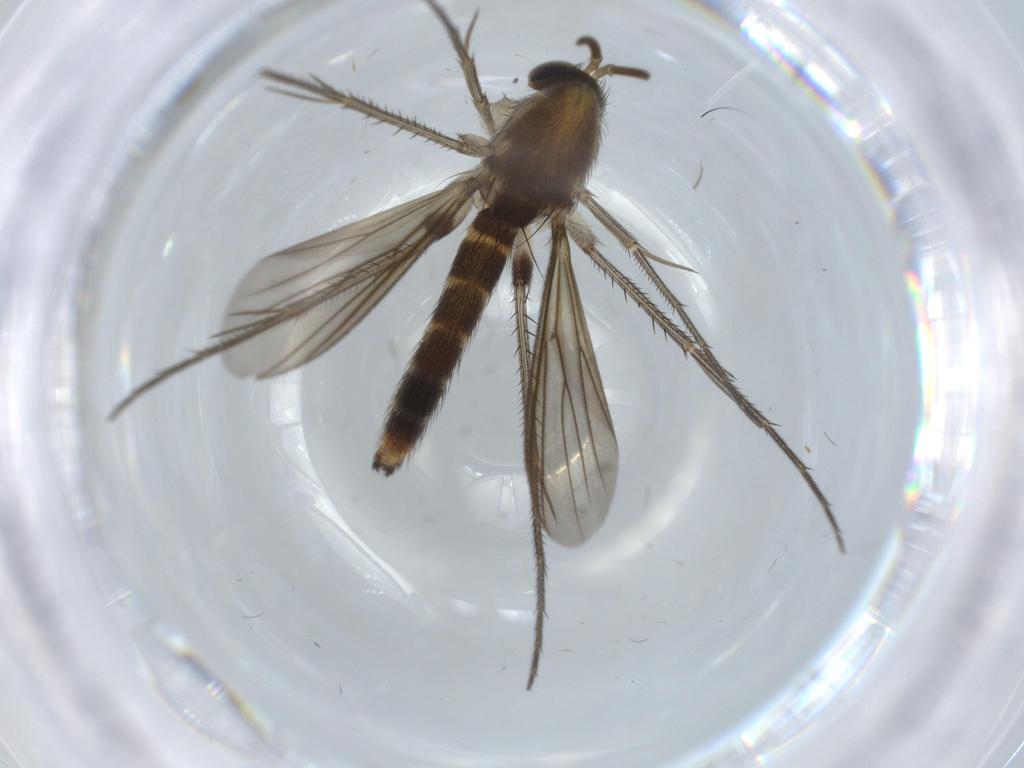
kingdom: Animalia
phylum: Arthropoda
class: Insecta
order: Diptera
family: Cecidomyiidae
